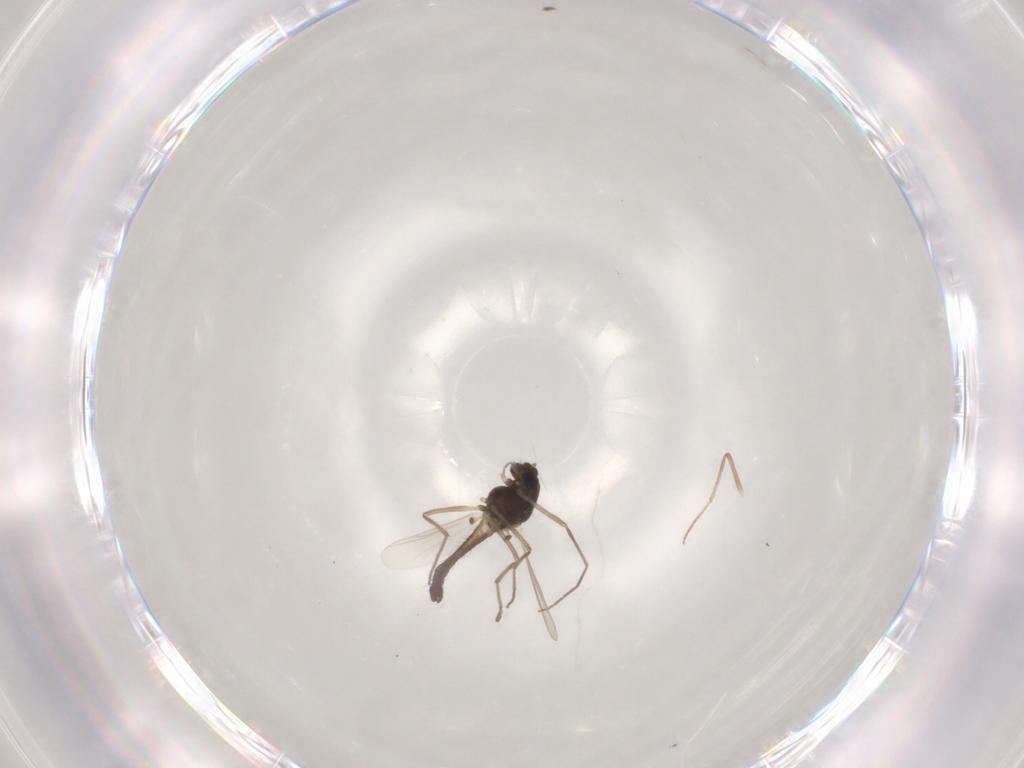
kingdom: Animalia
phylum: Arthropoda
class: Insecta
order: Diptera
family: Chironomidae
